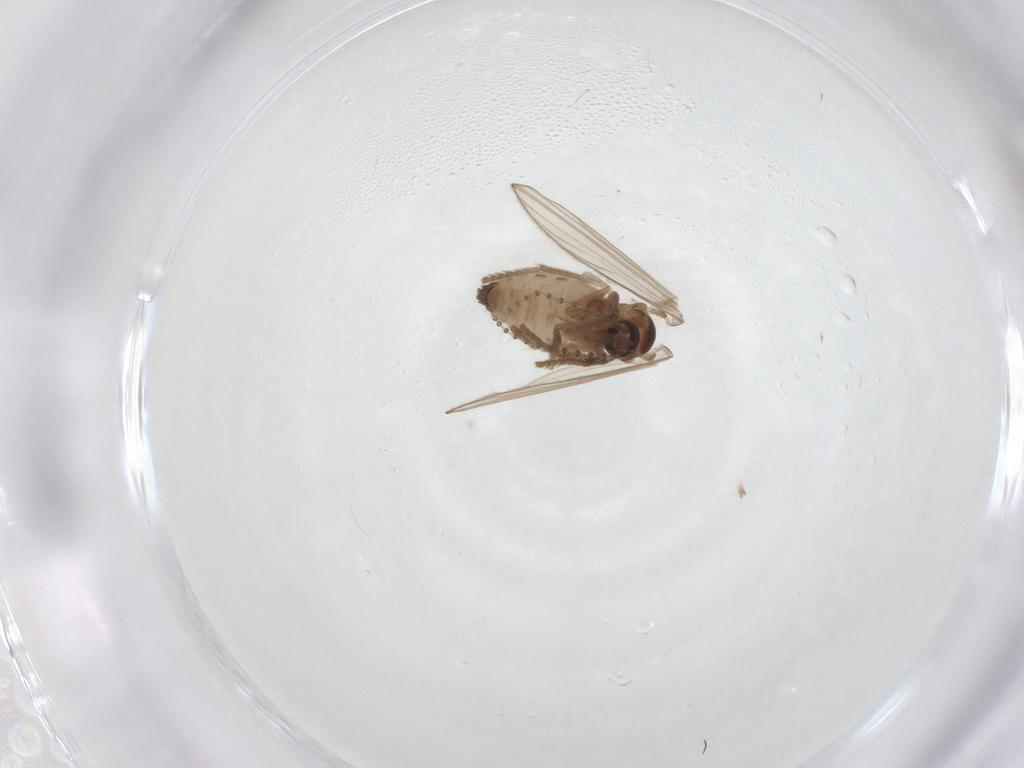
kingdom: Animalia
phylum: Arthropoda
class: Insecta
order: Diptera
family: Psychodidae
